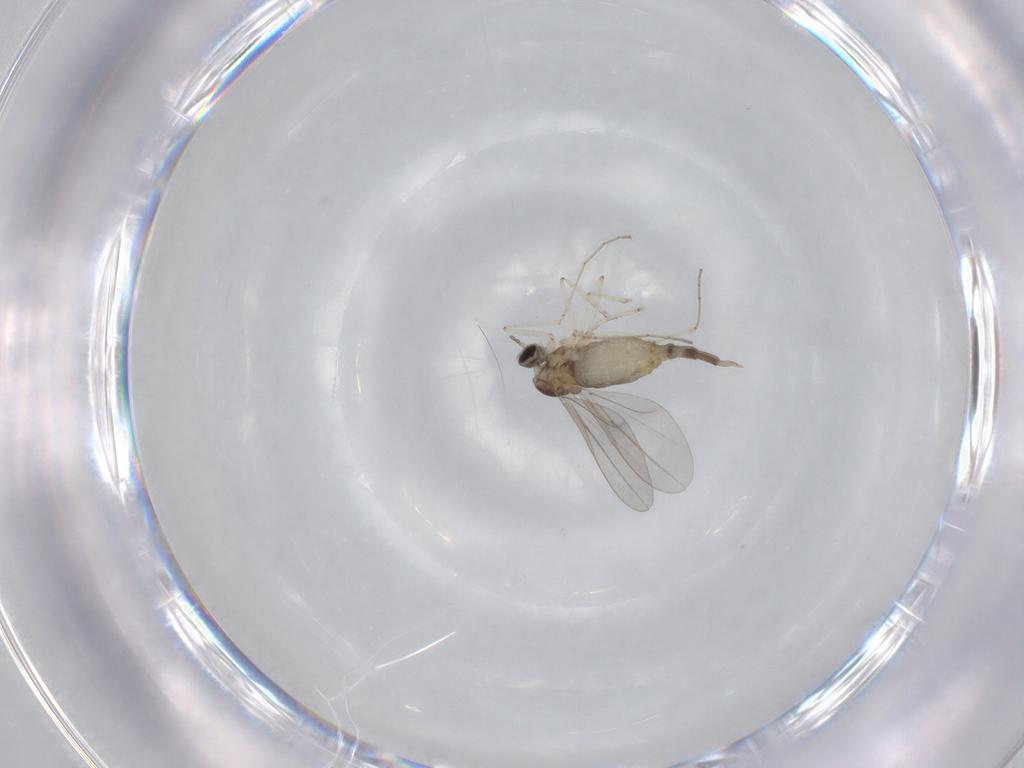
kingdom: Animalia
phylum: Arthropoda
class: Insecta
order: Diptera
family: Cecidomyiidae
